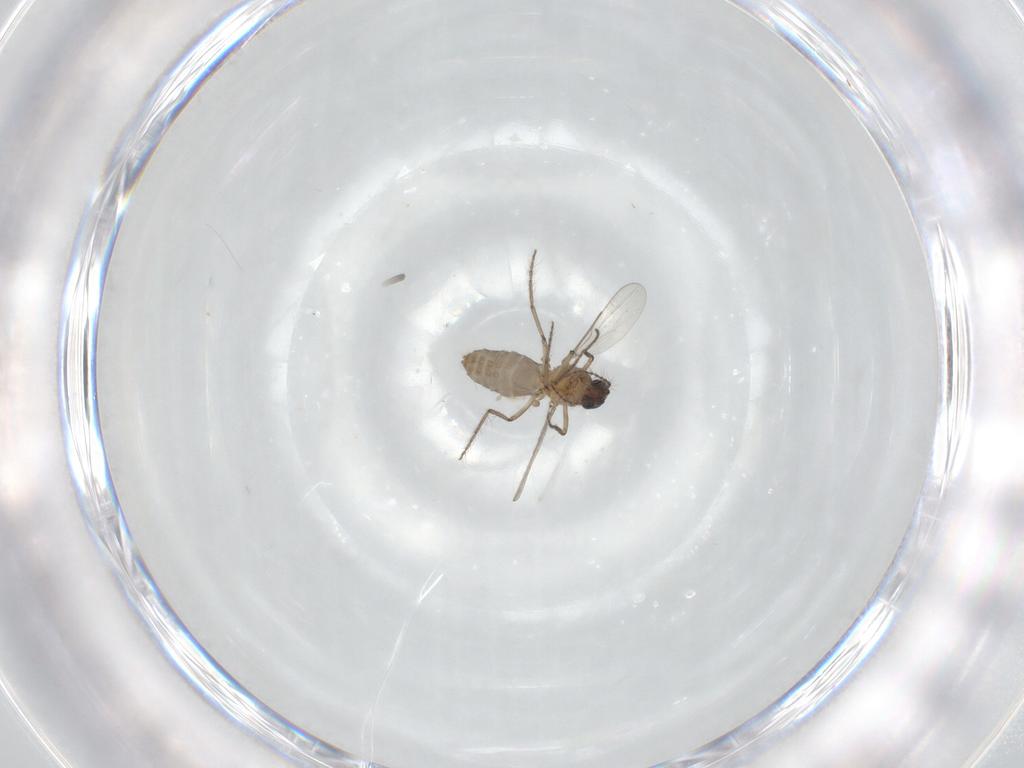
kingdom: Animalia
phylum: Arthropoda
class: Insecta
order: Diptera
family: Ceratopogonidae
